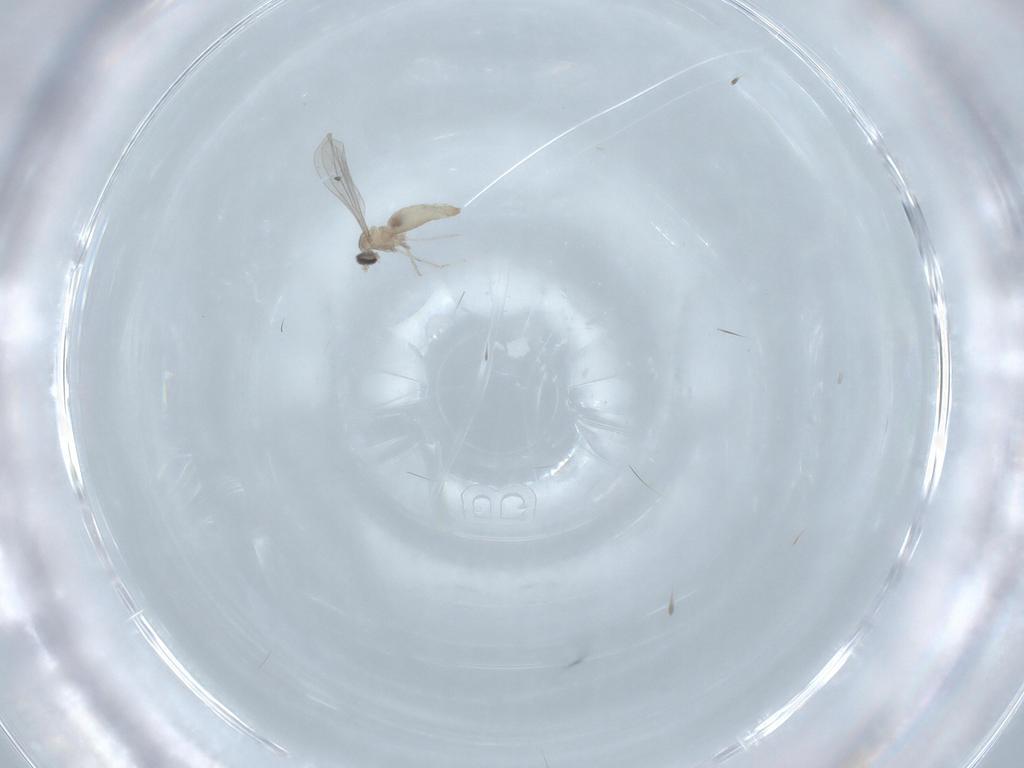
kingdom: Animalia
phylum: Arthropoda
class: Insecta
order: Diptera
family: Cecidomyiidae
